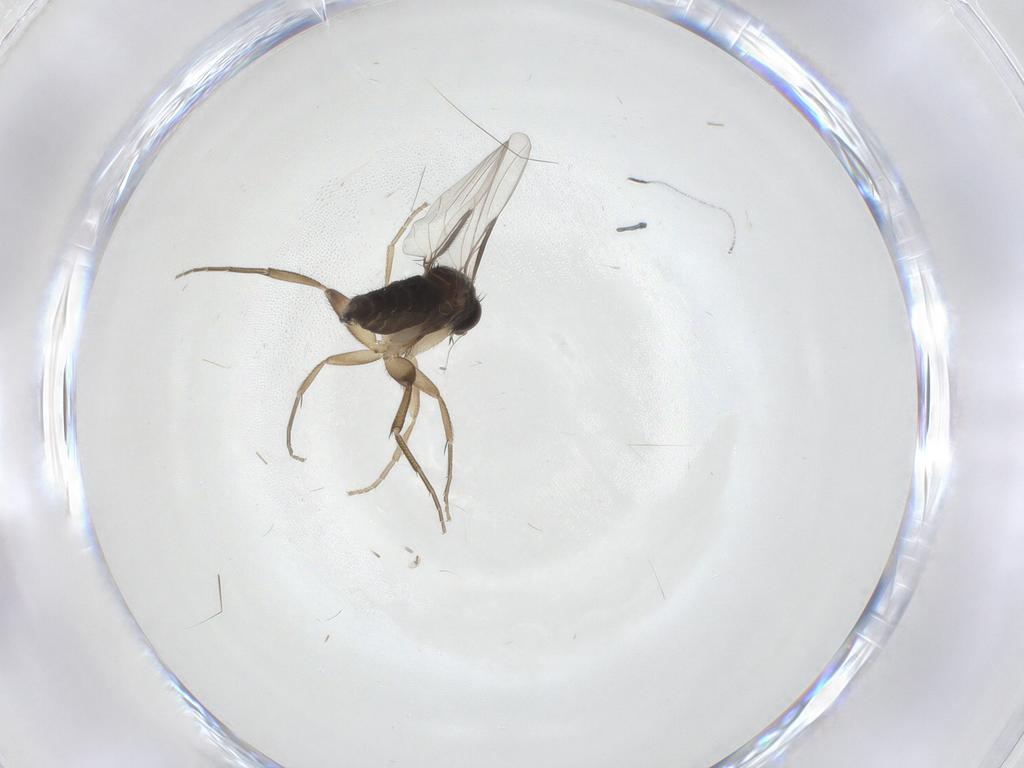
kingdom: Animalia
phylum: Arthropoda
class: Insecta
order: Diptera
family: Phoridae
